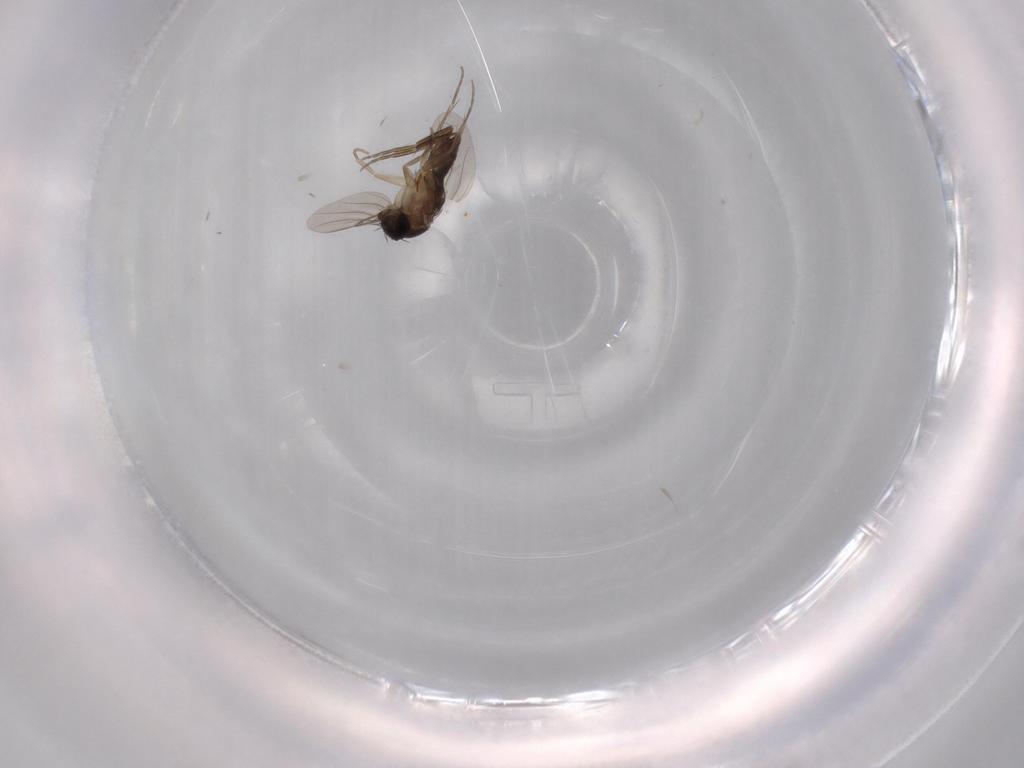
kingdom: Animalia
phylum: Arthropoda
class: Insecta
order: Diptera
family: Phoridae
